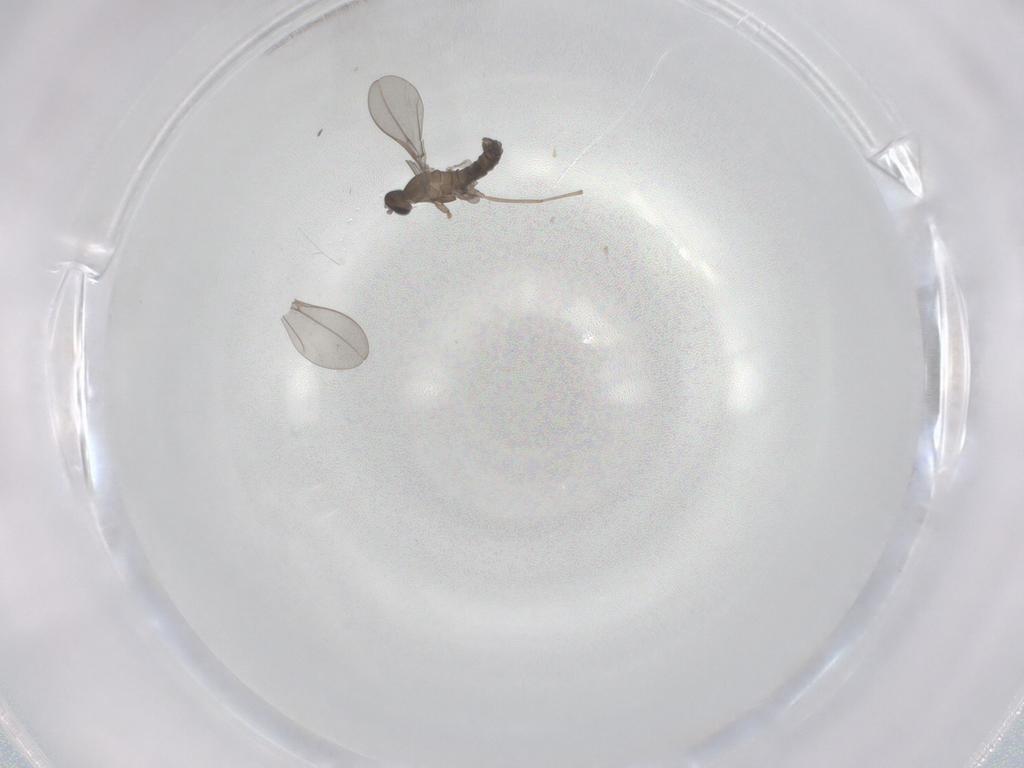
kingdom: Animalia
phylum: Arthropoda
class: Insecta
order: Diptera
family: Cecidomyiidae
